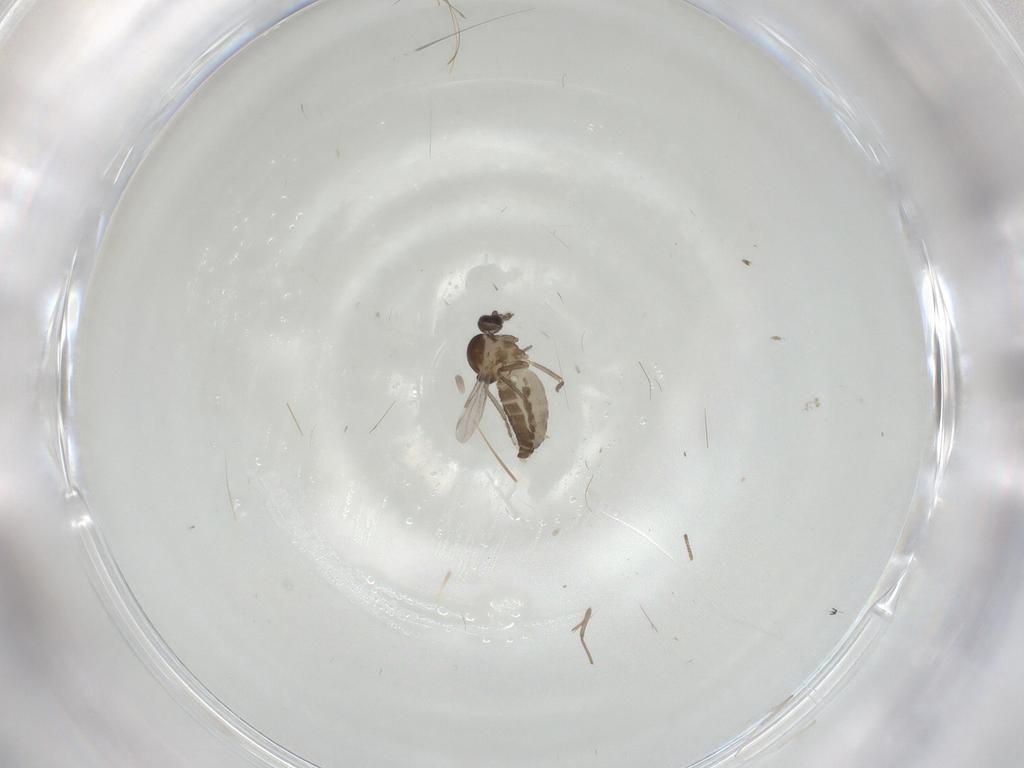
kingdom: Animalia
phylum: Arthropoda
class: Insecta
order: Diptera
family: Ceratopogonidae
